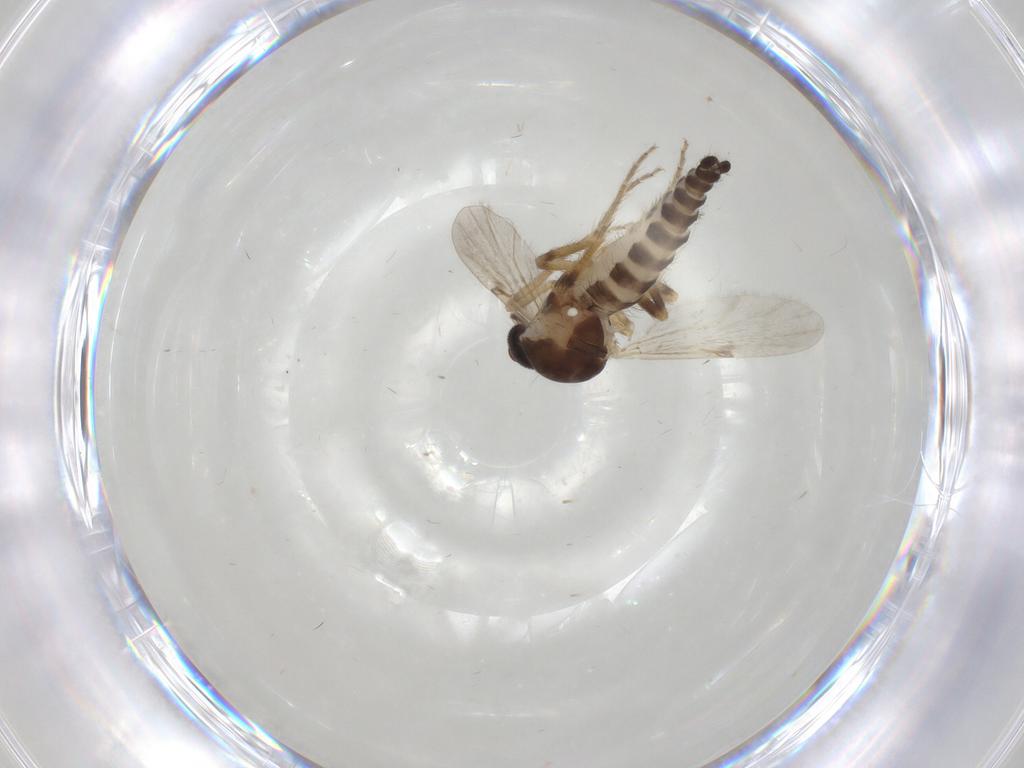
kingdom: Animalia
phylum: Arthropoda
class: Insecta
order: Diptera
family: Ceratopogonidae
